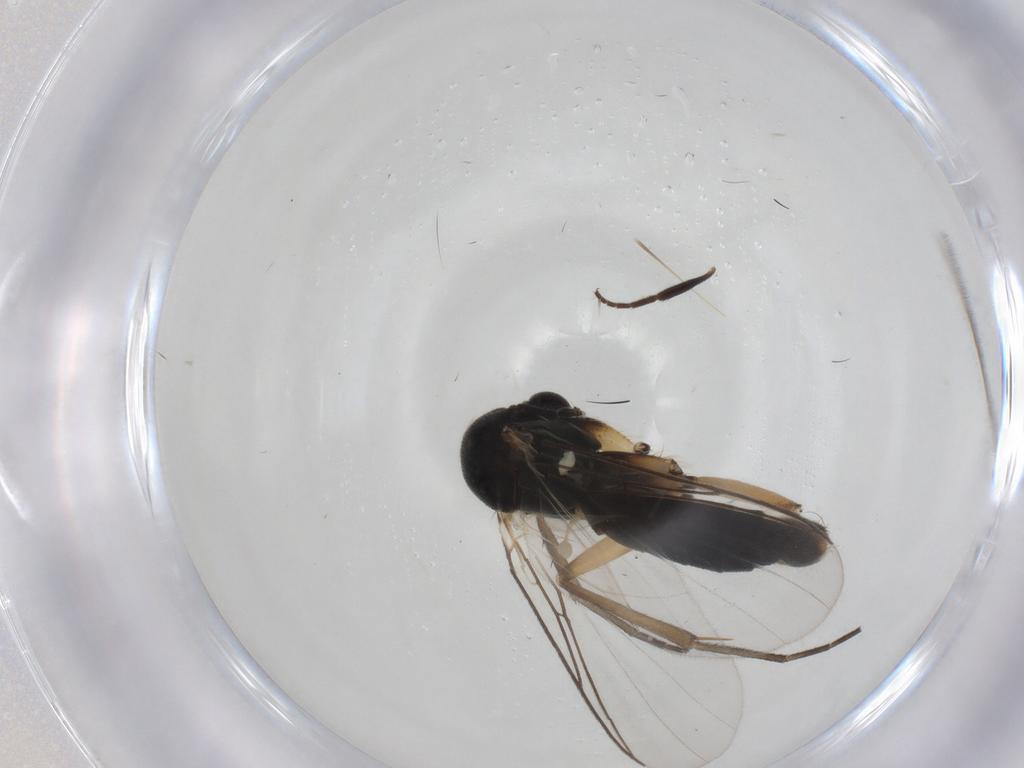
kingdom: Animalia
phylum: Arthropoda
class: Insecta
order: Diptera
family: Mycetophilidae
